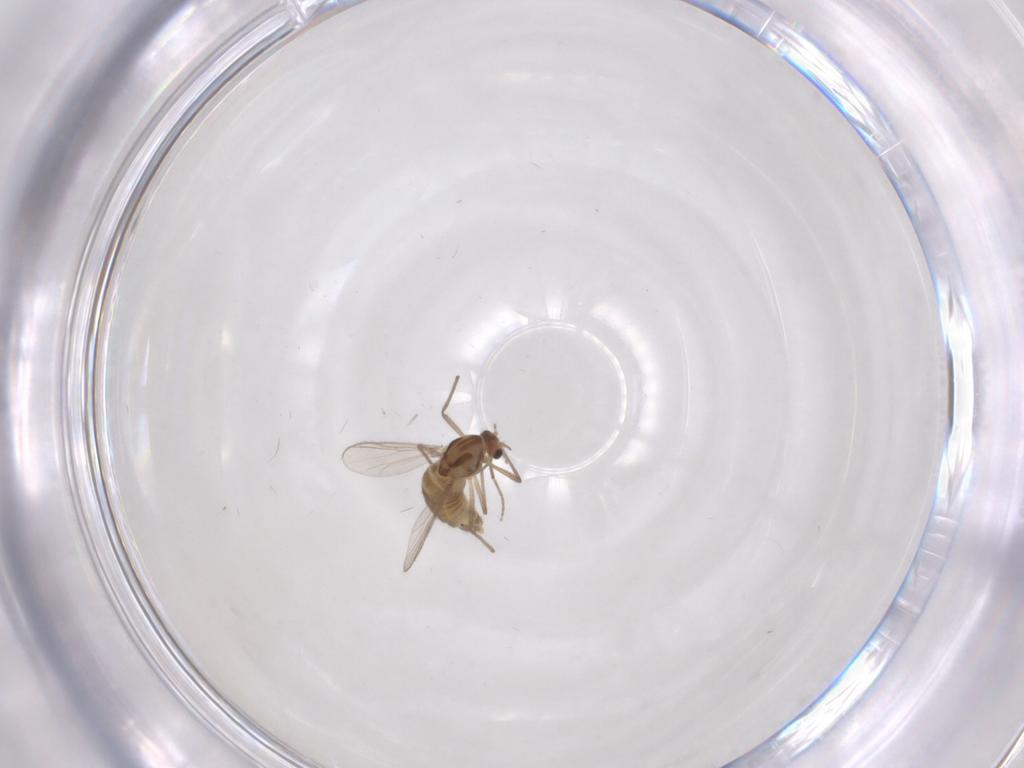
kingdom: Animalia
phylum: Arthropoda
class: Insecta
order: Diptera
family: Chironomidae
